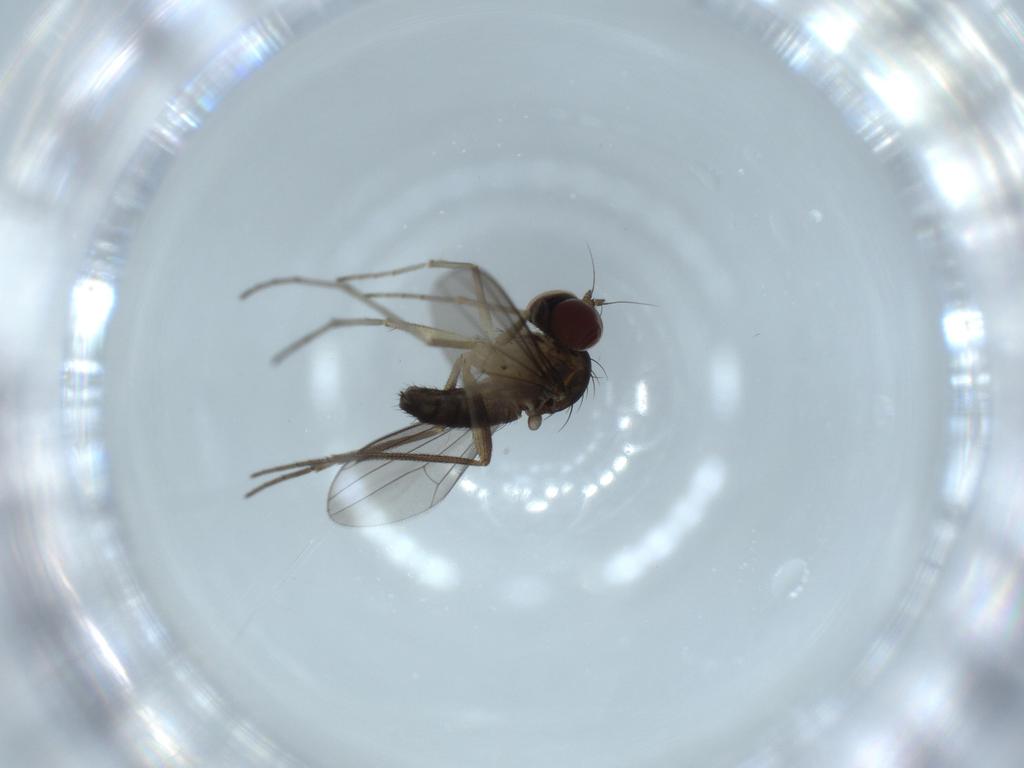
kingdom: Animalia
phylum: Arthropoda
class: Insecta
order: Diptera
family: Dolichopodidae
